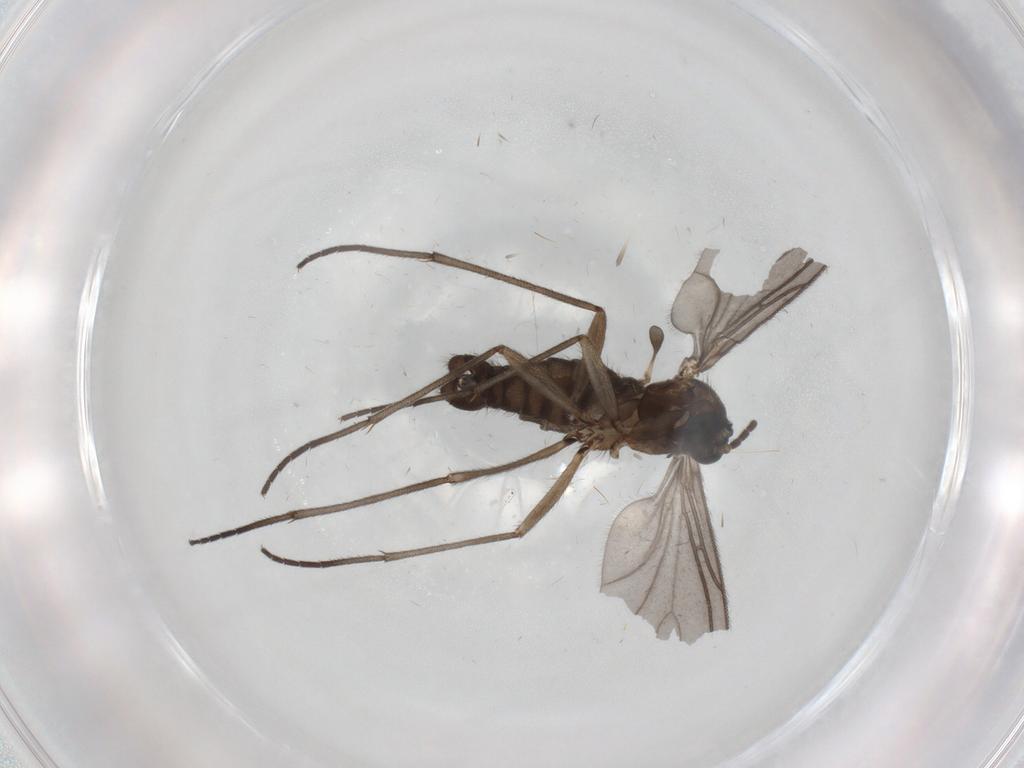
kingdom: Animalia
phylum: Arthropoda
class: Insecta
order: Diptera
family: Sciaridae
